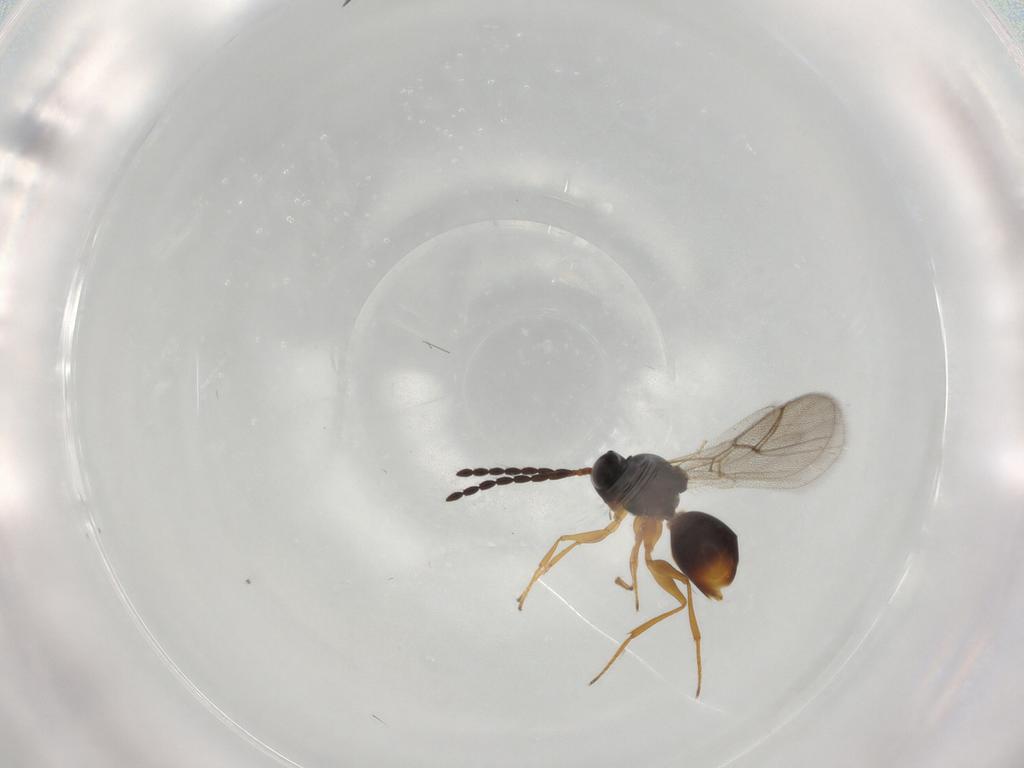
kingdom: Animalia
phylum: Arthropoda
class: Insecta
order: Hymenoptera
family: Figitidae
